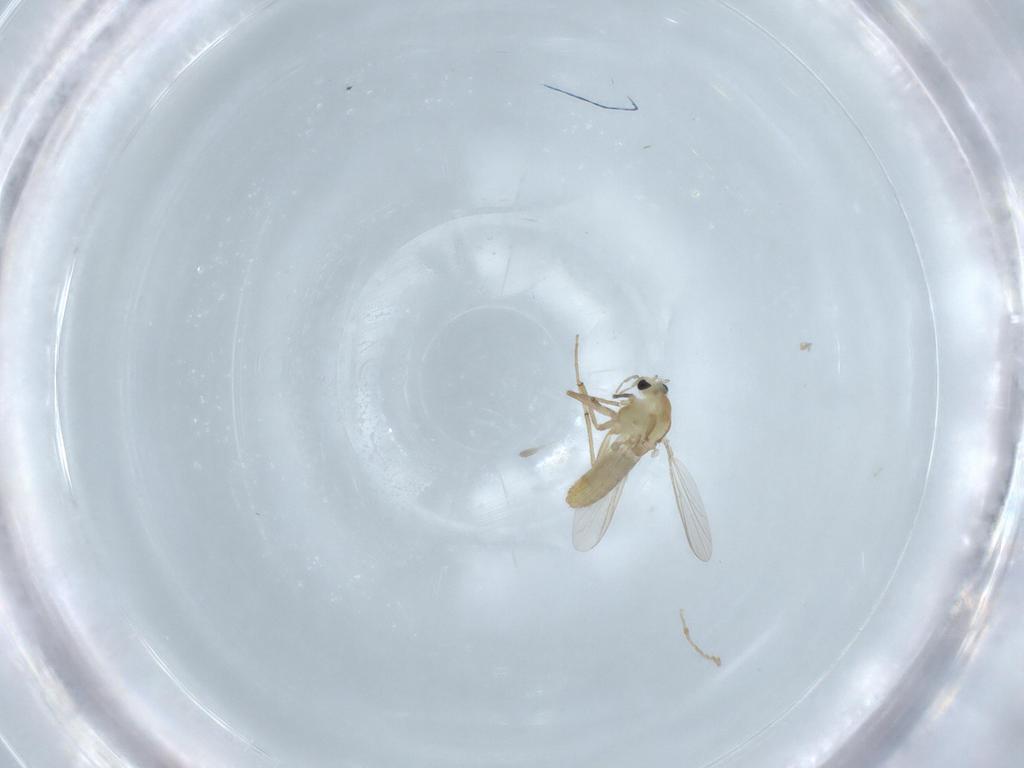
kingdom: Animalia
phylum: Arthropoda
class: Insecta
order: Diptera
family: Chironomidae
